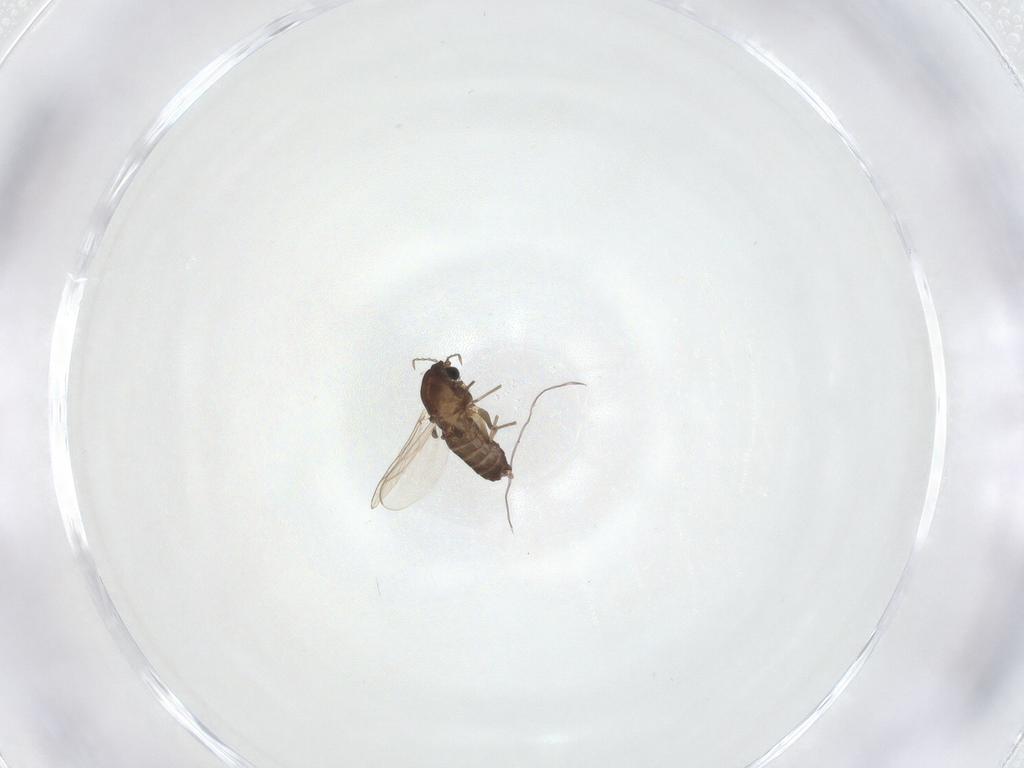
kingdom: Animalia
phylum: Arthropoda
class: Insecta
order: Diptera
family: Chironomidae
